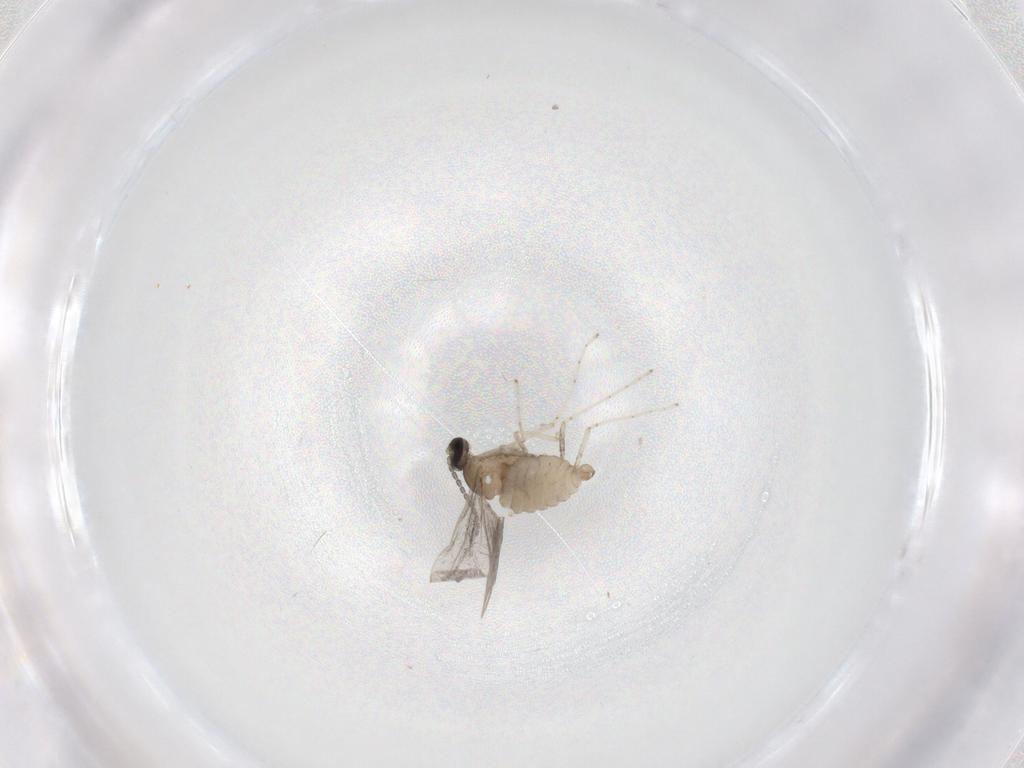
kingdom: Animalia
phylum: Arthropoda
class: Insecta
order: Diptera
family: Cecidomyiidae
